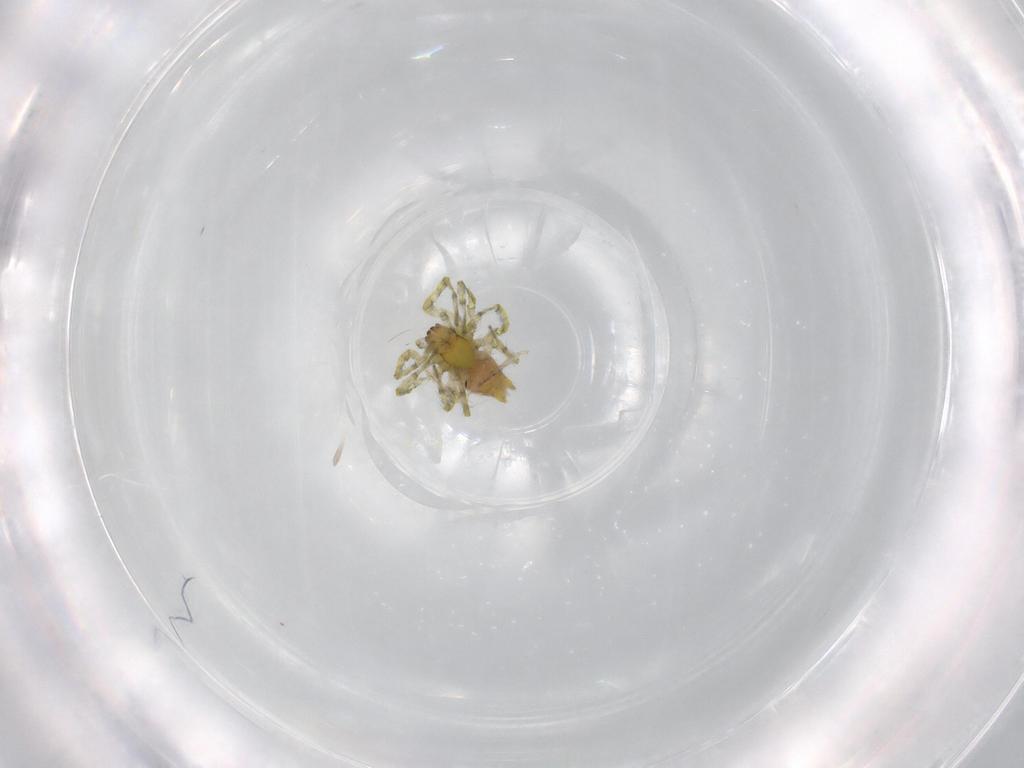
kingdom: Animalia
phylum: Arthropoda
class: Arachnida
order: Araneae
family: Dictynidae
